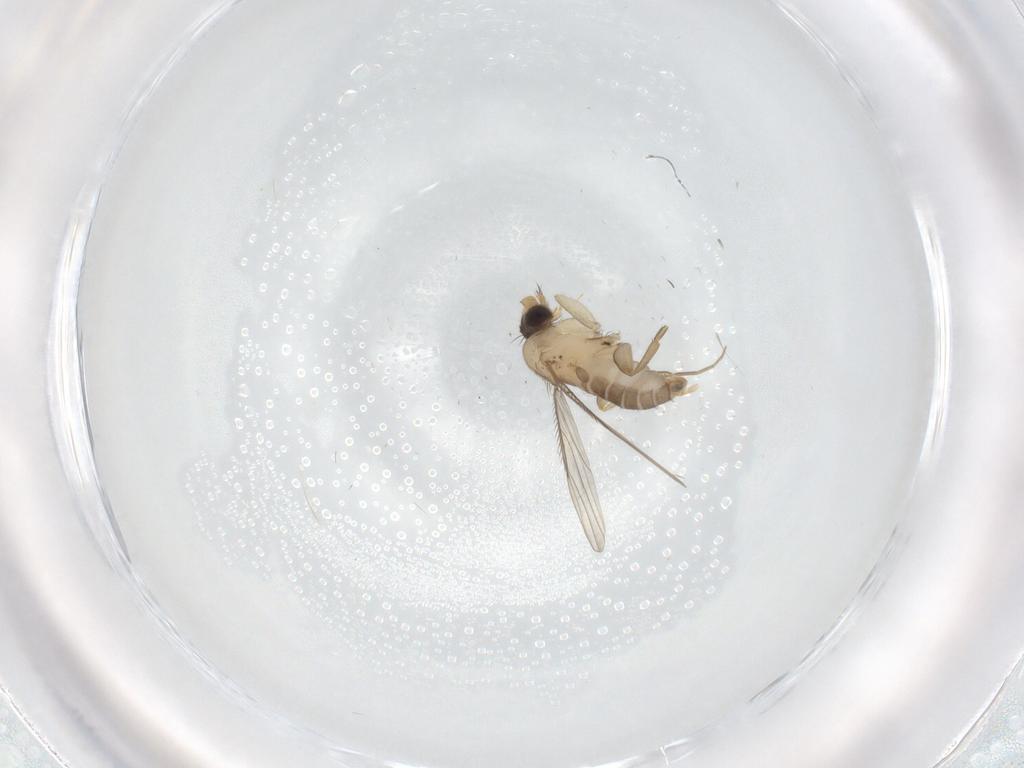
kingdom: Animalia
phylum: Arthropoda
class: Insecta
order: Diptera
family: Phoridae
